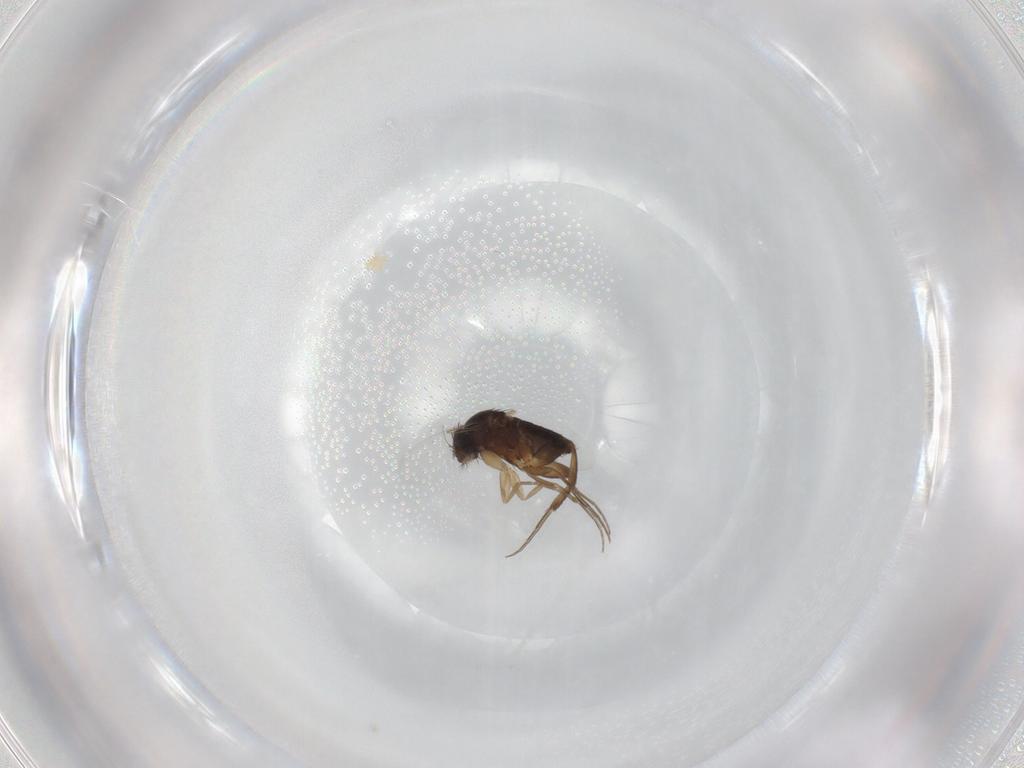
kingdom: Animalia
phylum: Arthropoda
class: Insecta
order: Diptera
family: Phoridae
